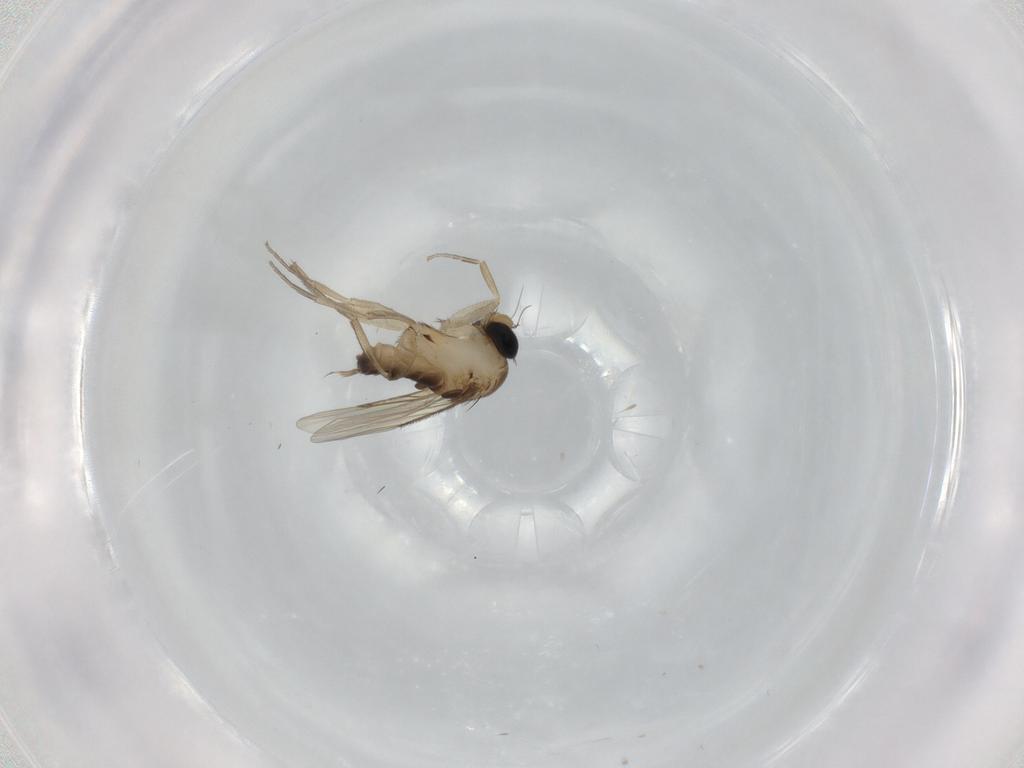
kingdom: Animalia
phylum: Arthropoda
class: Insecta
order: Diptera
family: Phoridae
